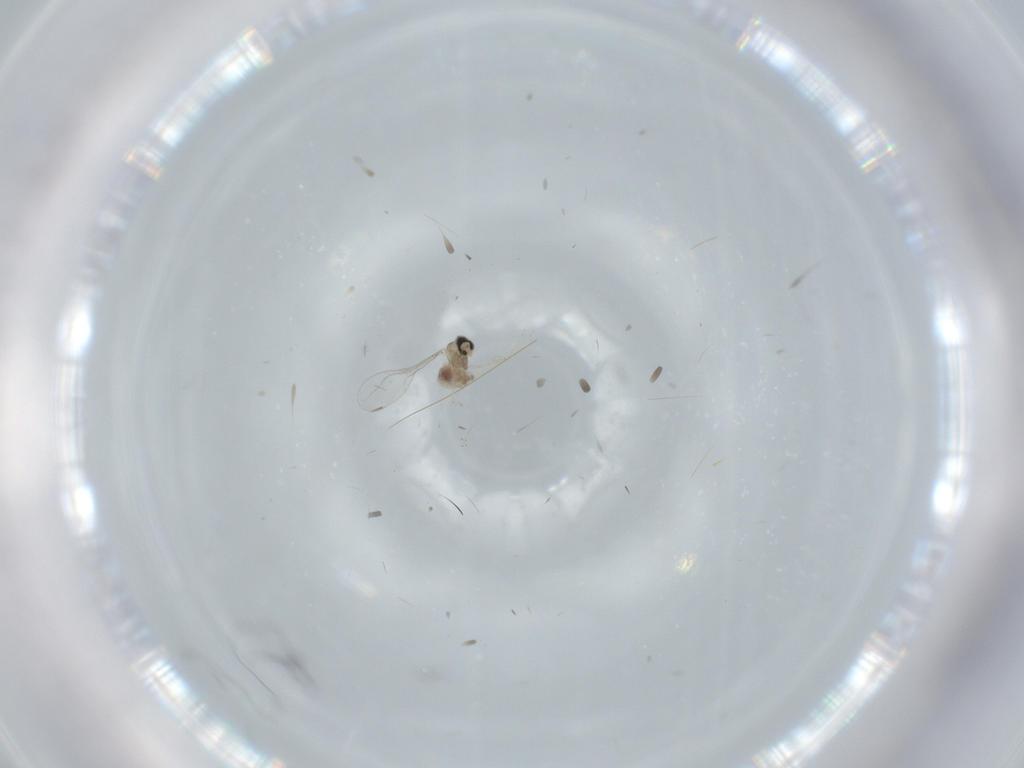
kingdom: Animalia
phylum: Arthropoda
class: Insecta
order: Diptera
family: Cecidomyiidae
